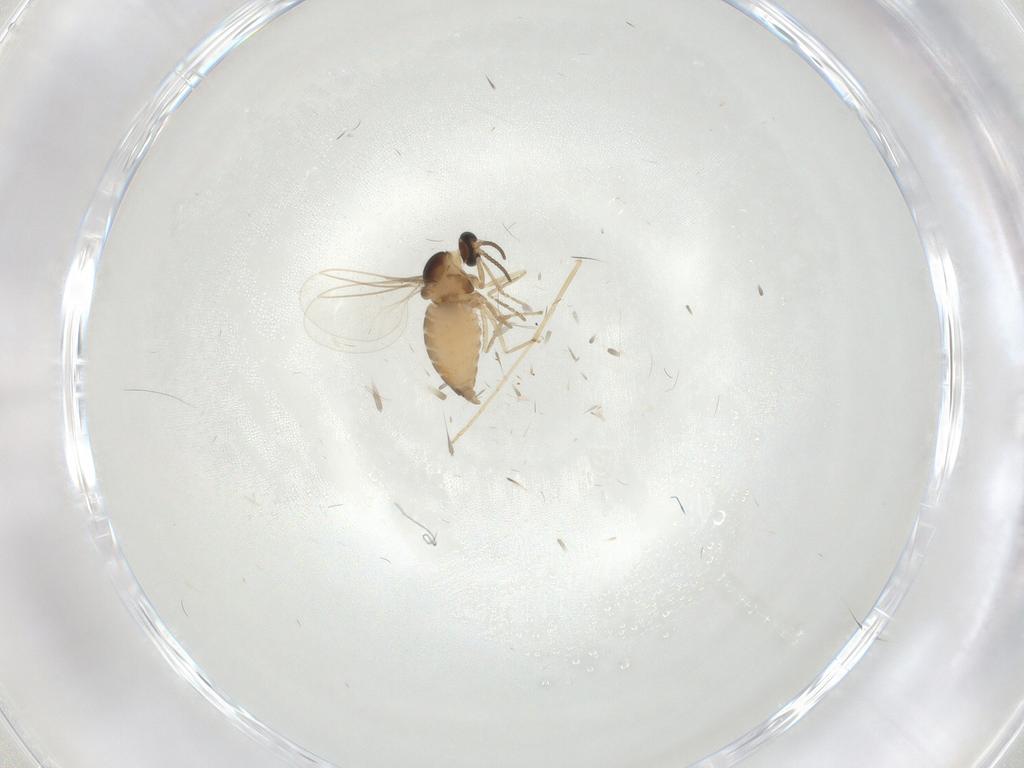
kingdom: Animalia
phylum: Arthropoda
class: Insecta
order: Diptera
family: Cecidomyiidae
